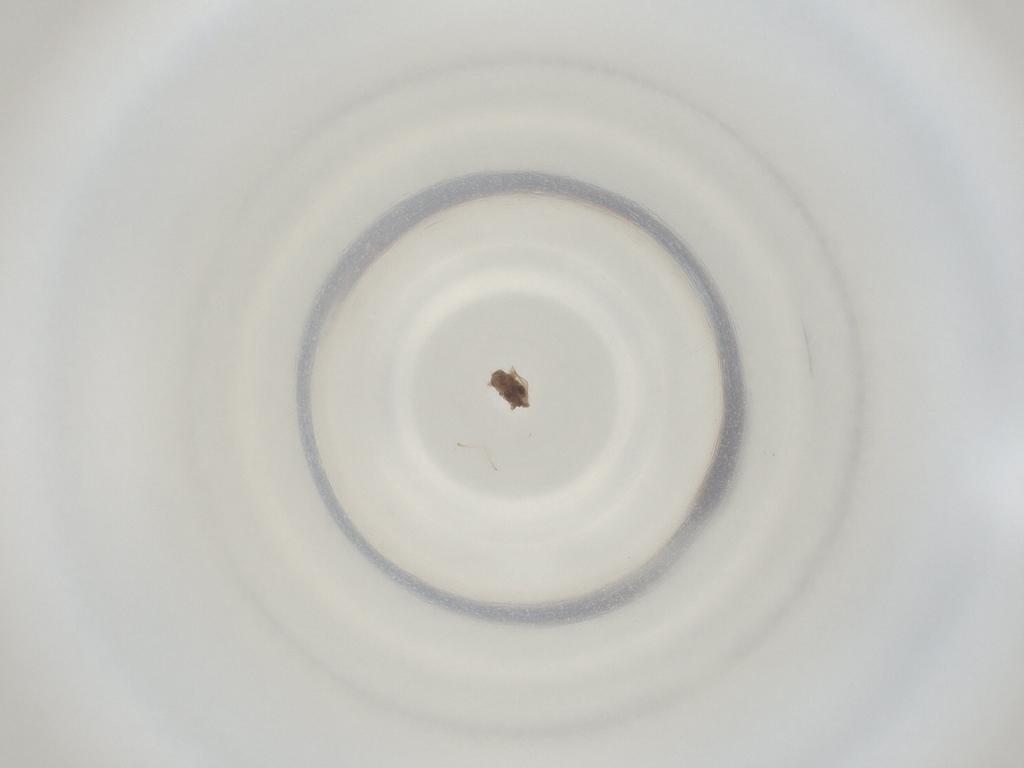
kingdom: Animalia
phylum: Arthropoda
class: Insecta
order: Diptera
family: Cecidomyiidae
